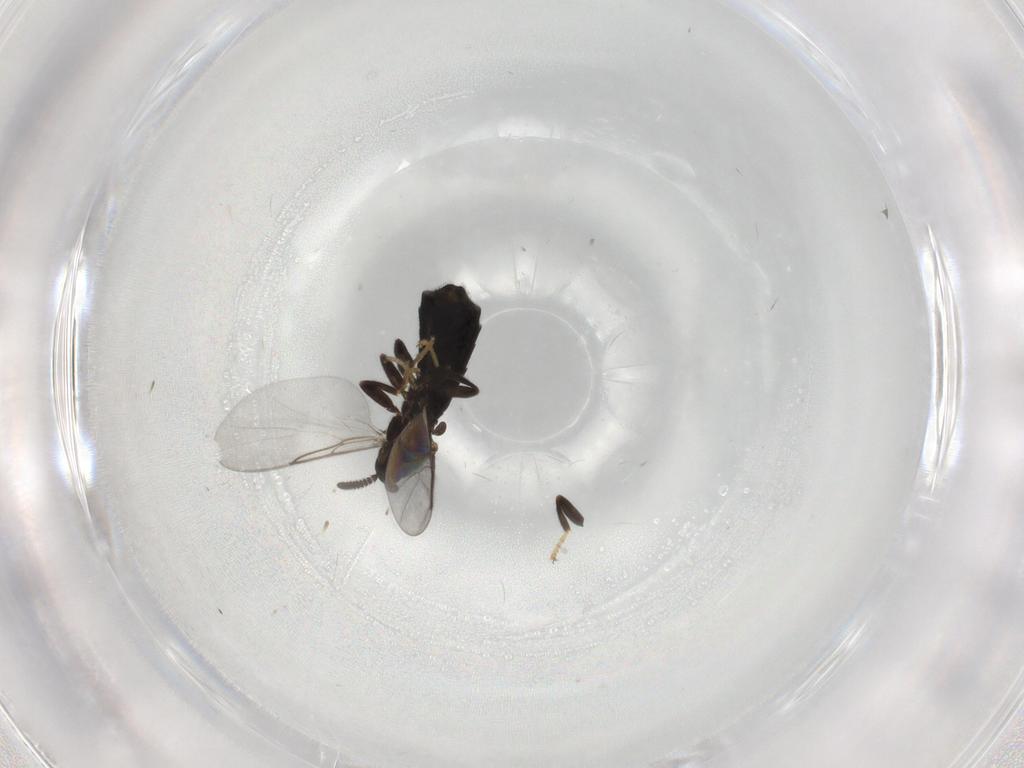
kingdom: Animalia
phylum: Arthropoda
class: Insecta
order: Diptera
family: Scatopsidae
